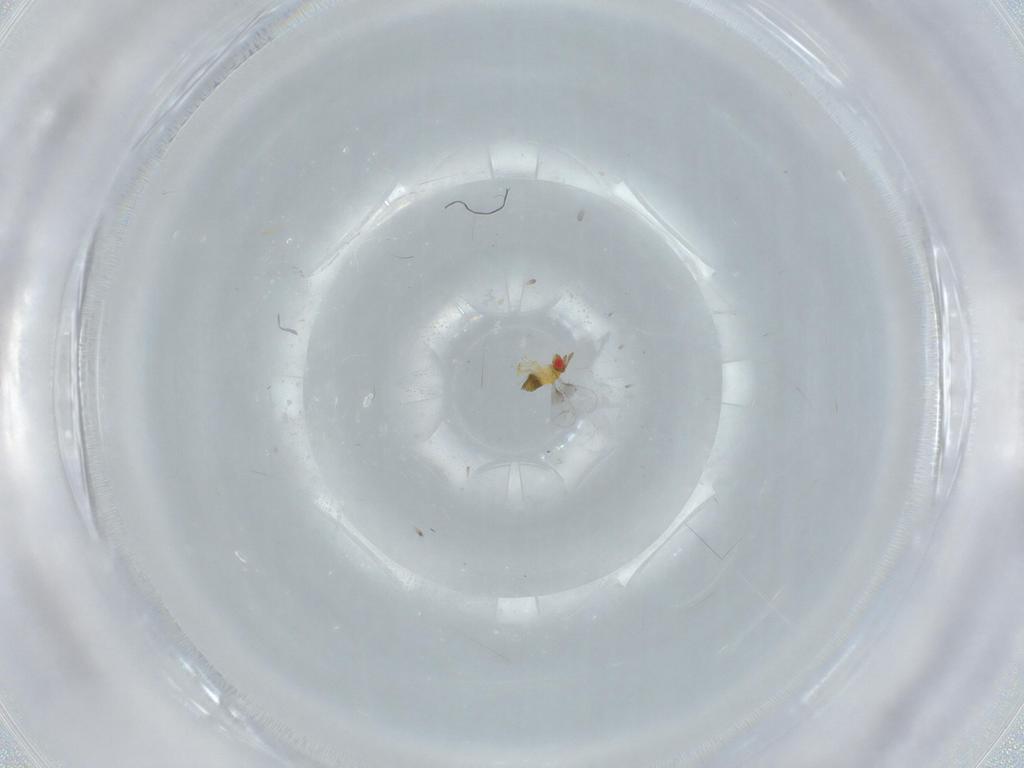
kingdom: Animalia
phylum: Arthropoda
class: Insecta
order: Hymenoptera
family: Trichogrammatidae
